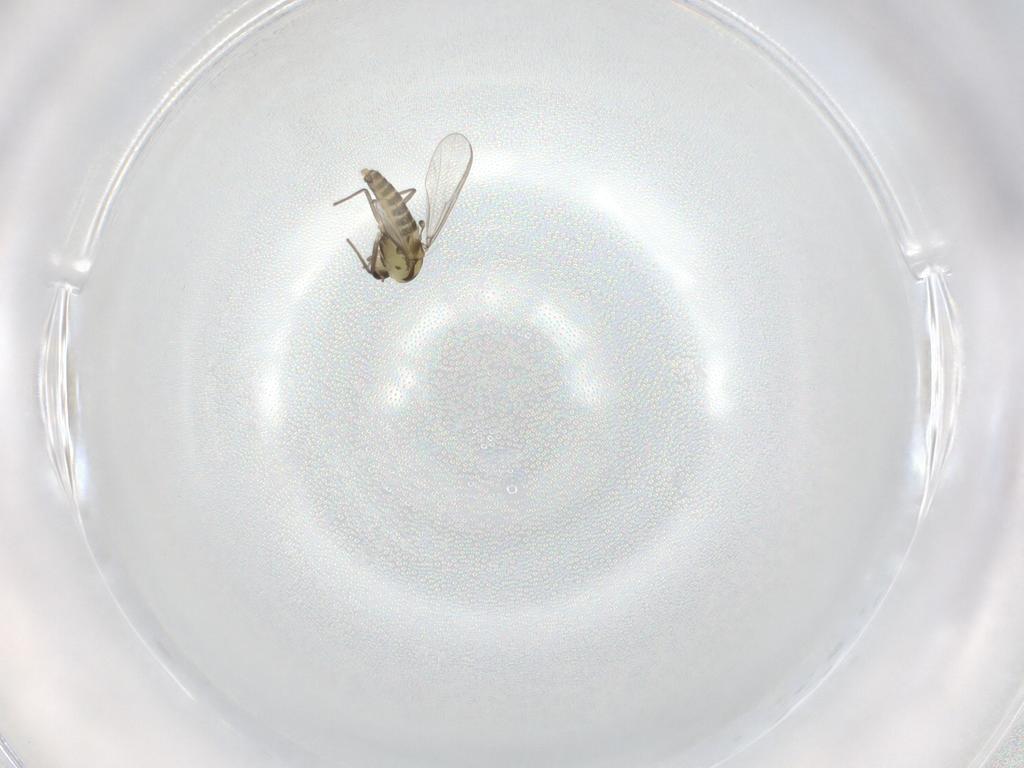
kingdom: Animalia
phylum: Arthropoda
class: Insecta
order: Diptera
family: Chironomidae
